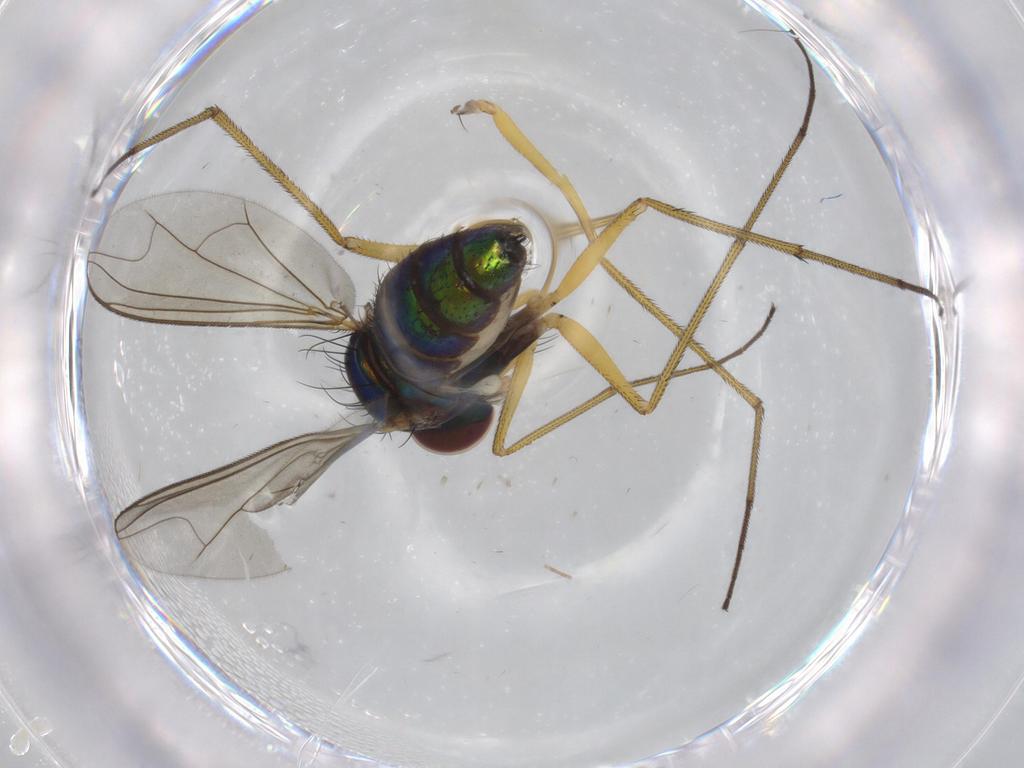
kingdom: Animalia
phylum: Arthropoda
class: Insecta
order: Diptera
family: Dolichopodidae
